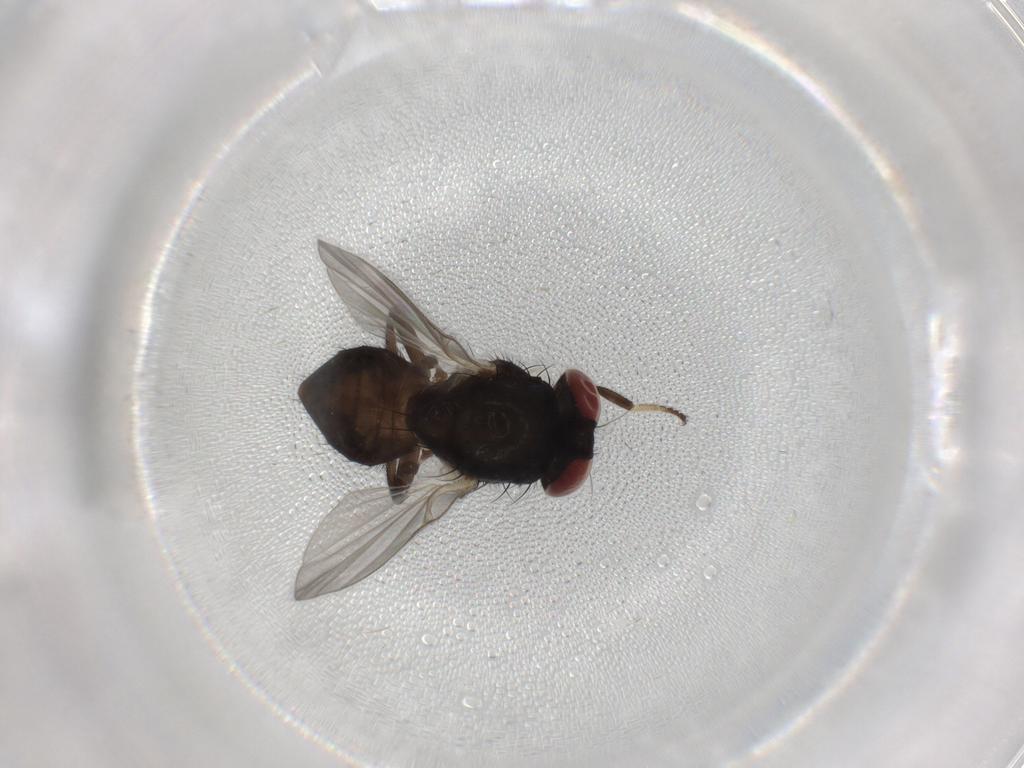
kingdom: Animalia
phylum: Arthropoda
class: Insecta
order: Diptera
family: Lonchaeidae
